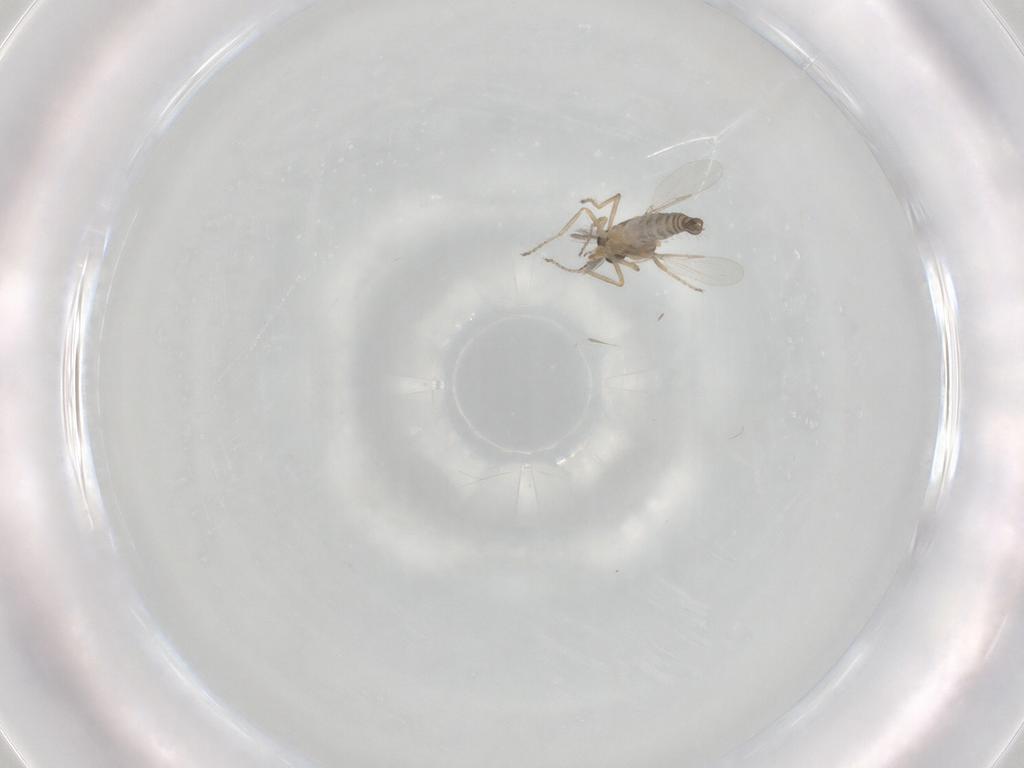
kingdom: Animalia
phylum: Arthropoda
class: Insecta
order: Diptera
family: Ceratopogonidae
